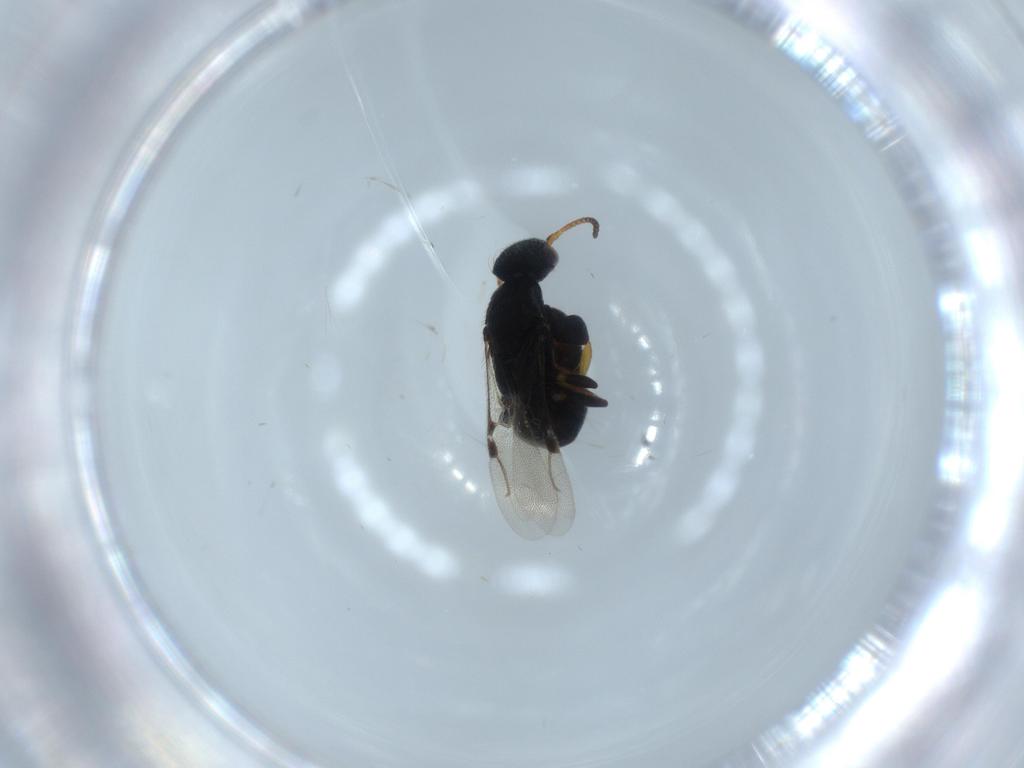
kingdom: Animalia
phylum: Arthropoda
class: Insecta
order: Hymenoptera
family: Bethylidae
